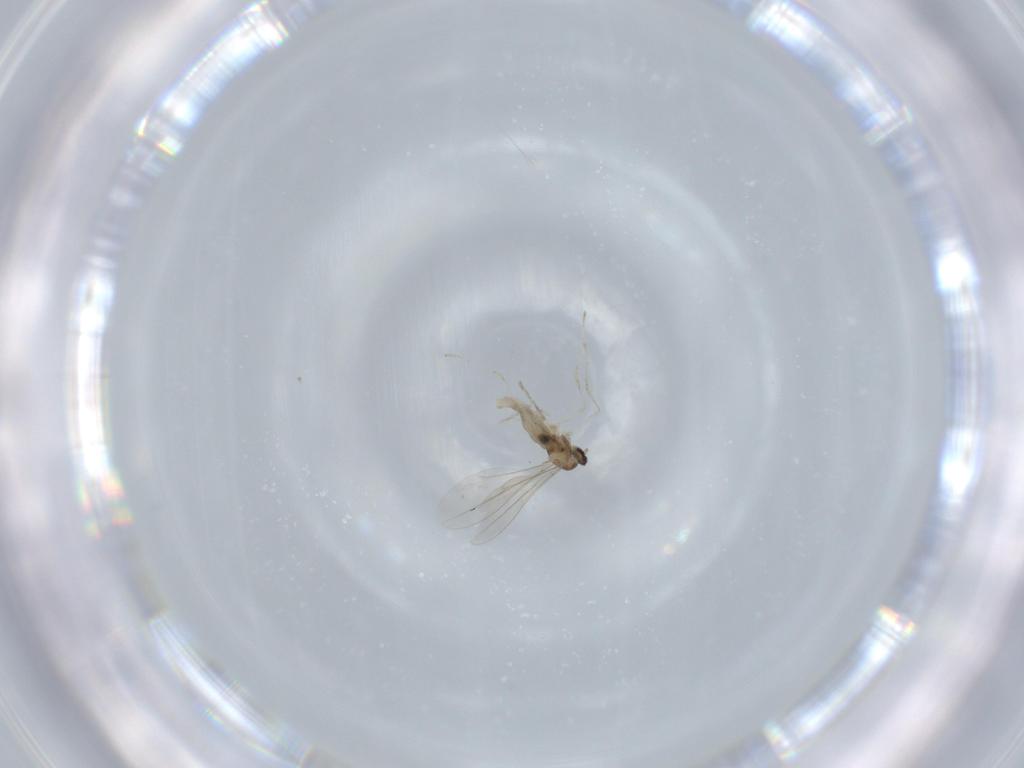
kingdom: Animalia
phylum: Arthropoda
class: Insecta
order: Diptera
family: Cecidomyiidae
